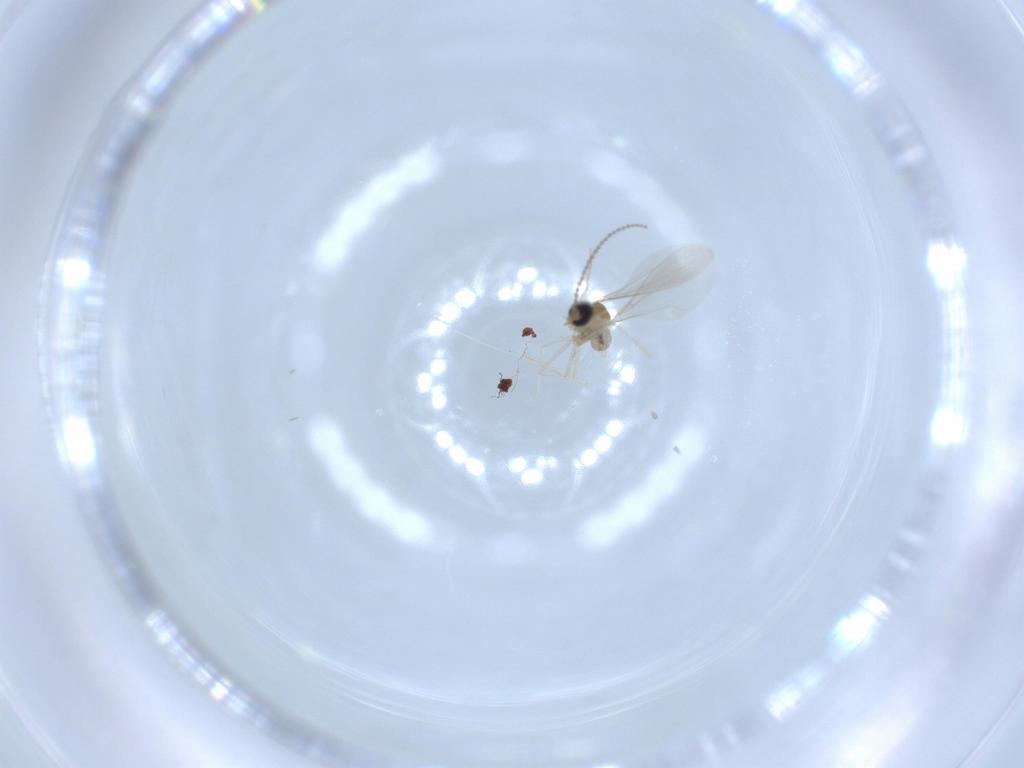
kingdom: Animalia
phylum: Arthropoda
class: Insecta
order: Diptera
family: Cecidomyiidae
